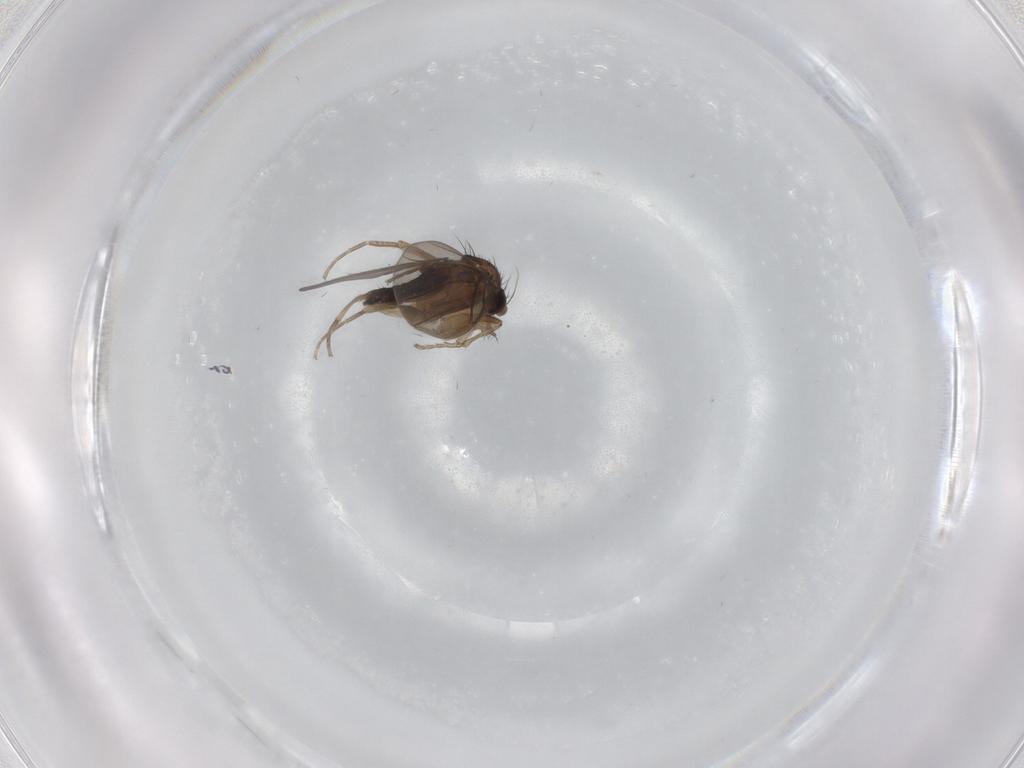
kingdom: Animalia
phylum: Arthropoda
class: Insecta
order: Diptera
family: Phoridae
